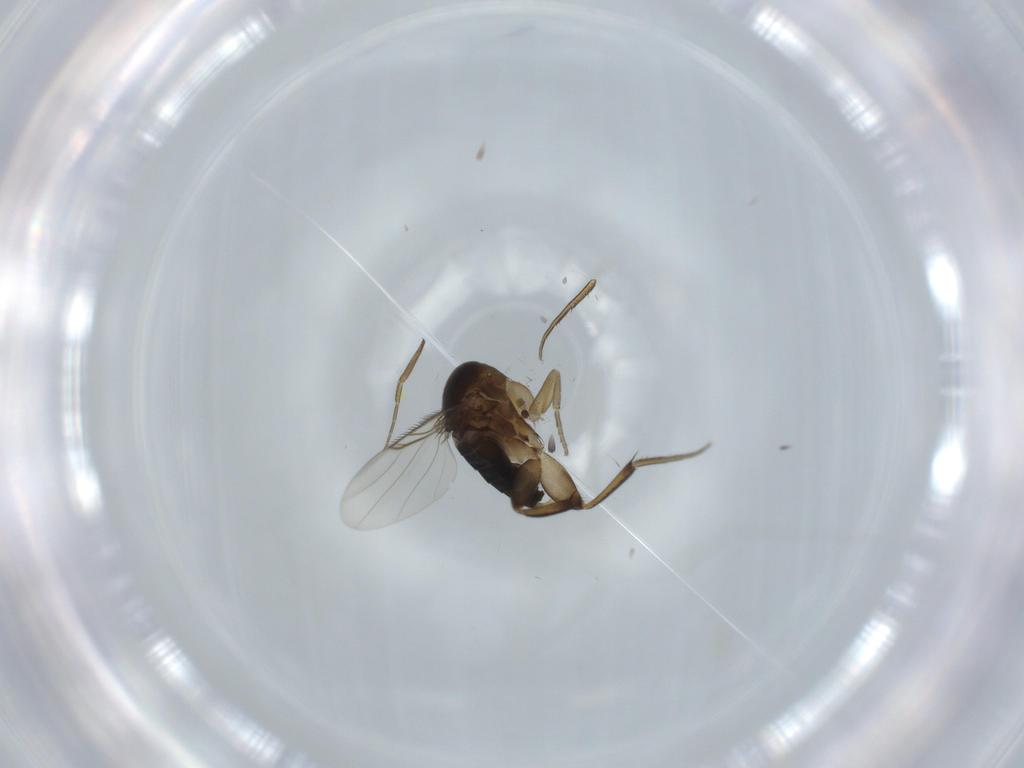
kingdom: Animalia
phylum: Arthropoda
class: Insecta
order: Diptera
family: Phoridae
